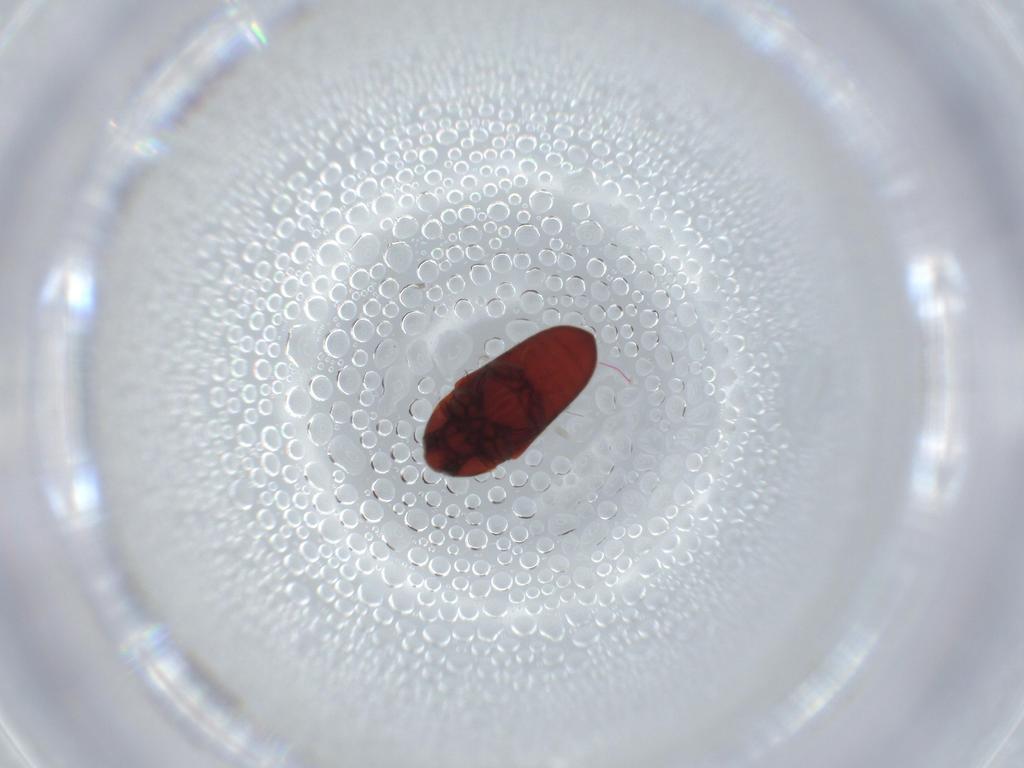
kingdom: Animalia
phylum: Arthropoda
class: Insecta
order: Coleoptera
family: Throscidae
